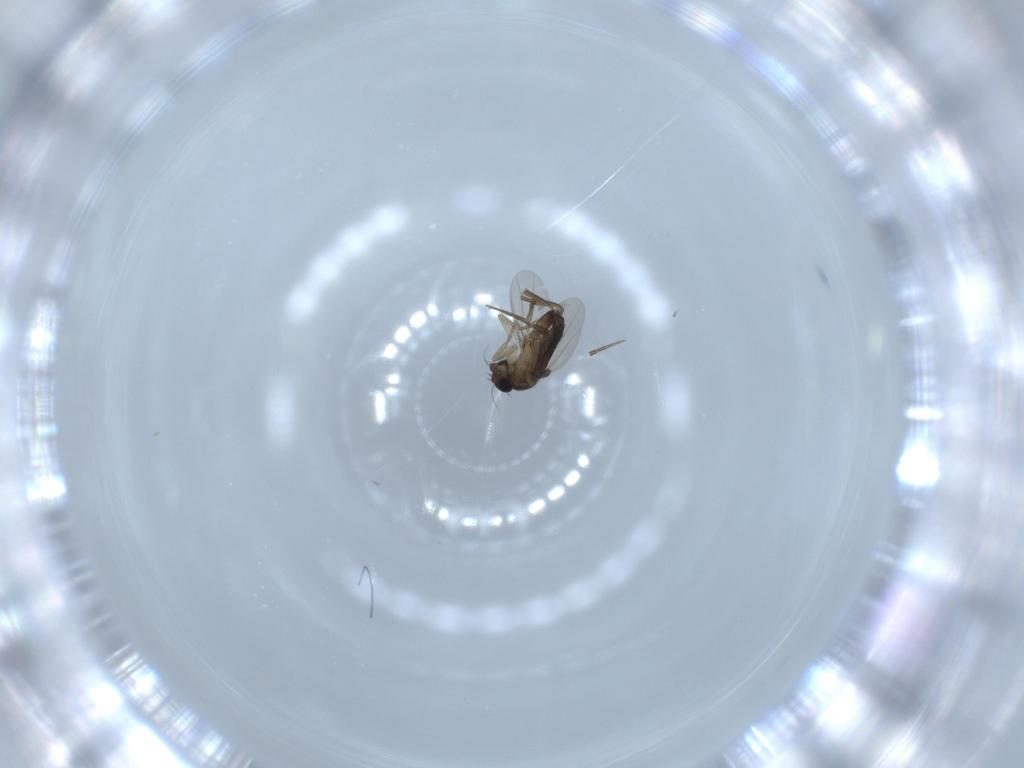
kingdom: Animalia
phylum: Arthropoda
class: Insecta
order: Diptera
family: Phoridae
